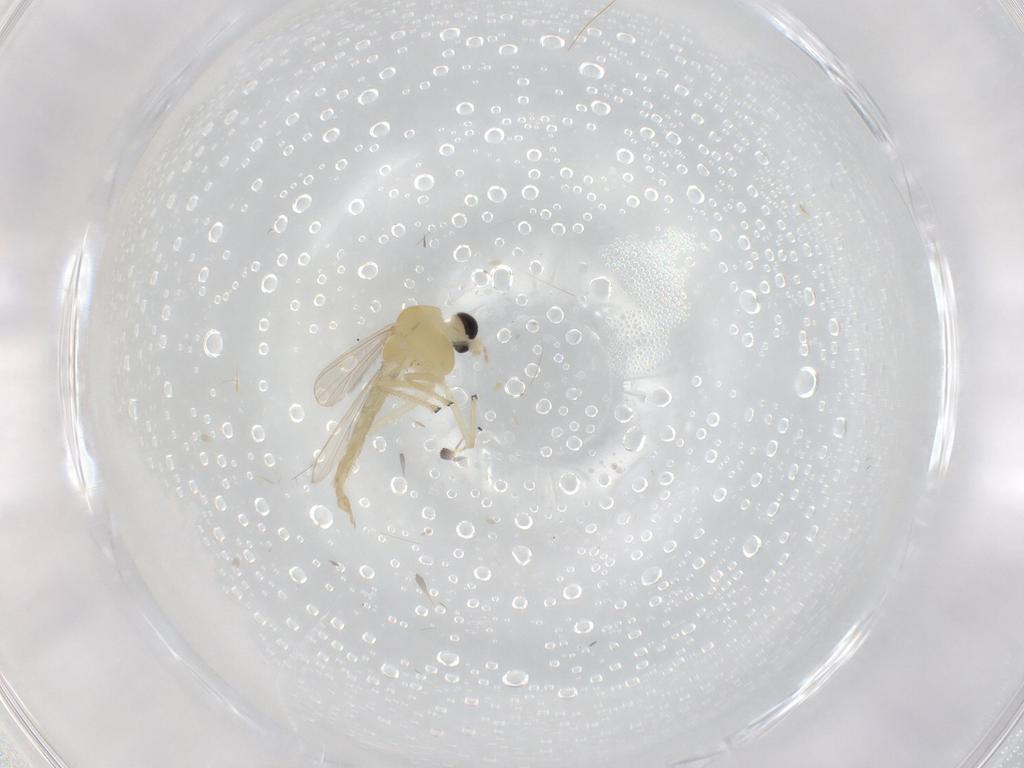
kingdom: Animalia
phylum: Arthropoda
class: Insecta
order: Diptera
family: Chironomidae
